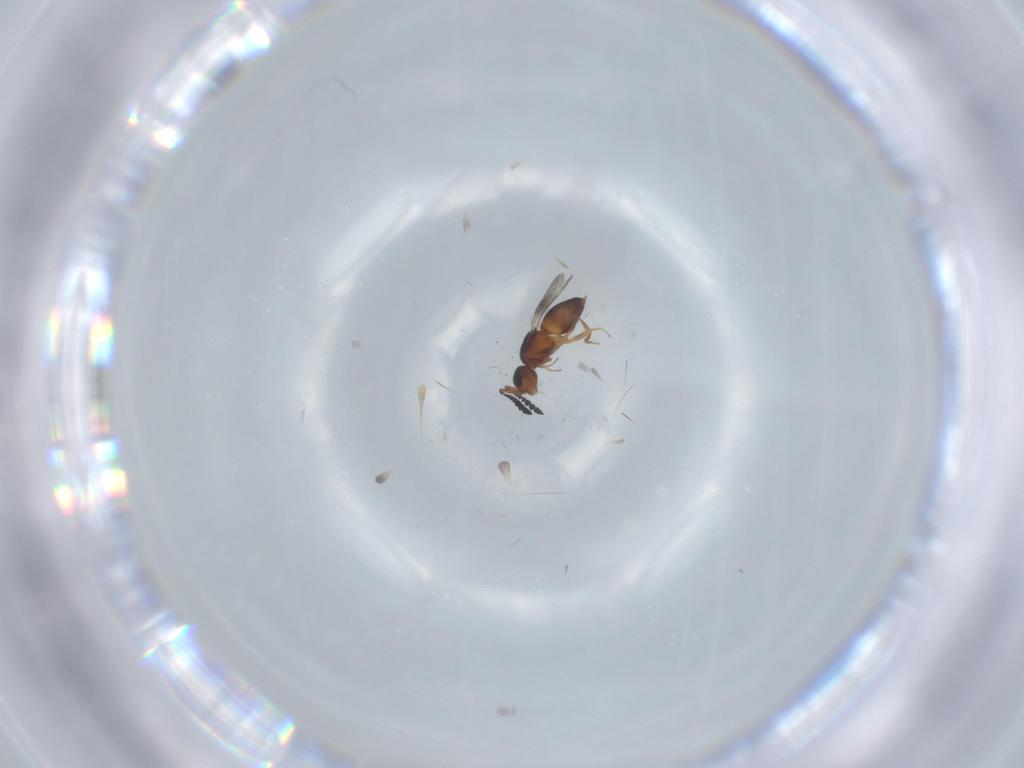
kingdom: Animalia
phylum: Arthropoda
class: Insecta
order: Hymenoptera
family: Ceraphronidae
